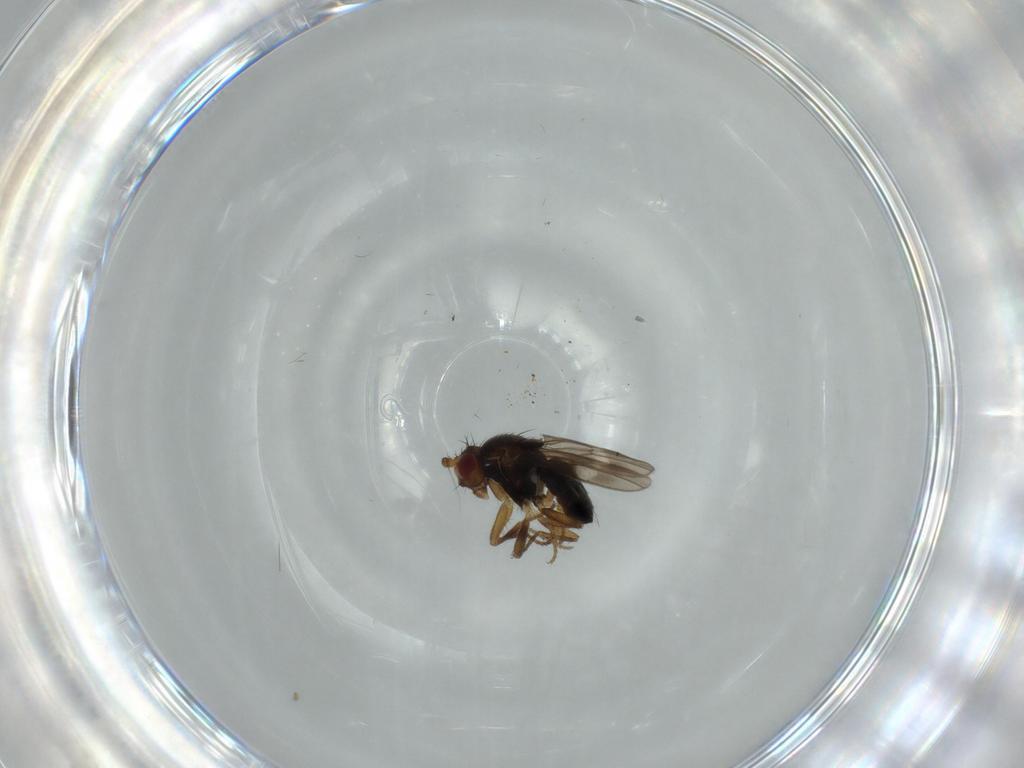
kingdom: Animalia
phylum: Arthropoda
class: Insecta
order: Diptera
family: Sphaeroceridae
